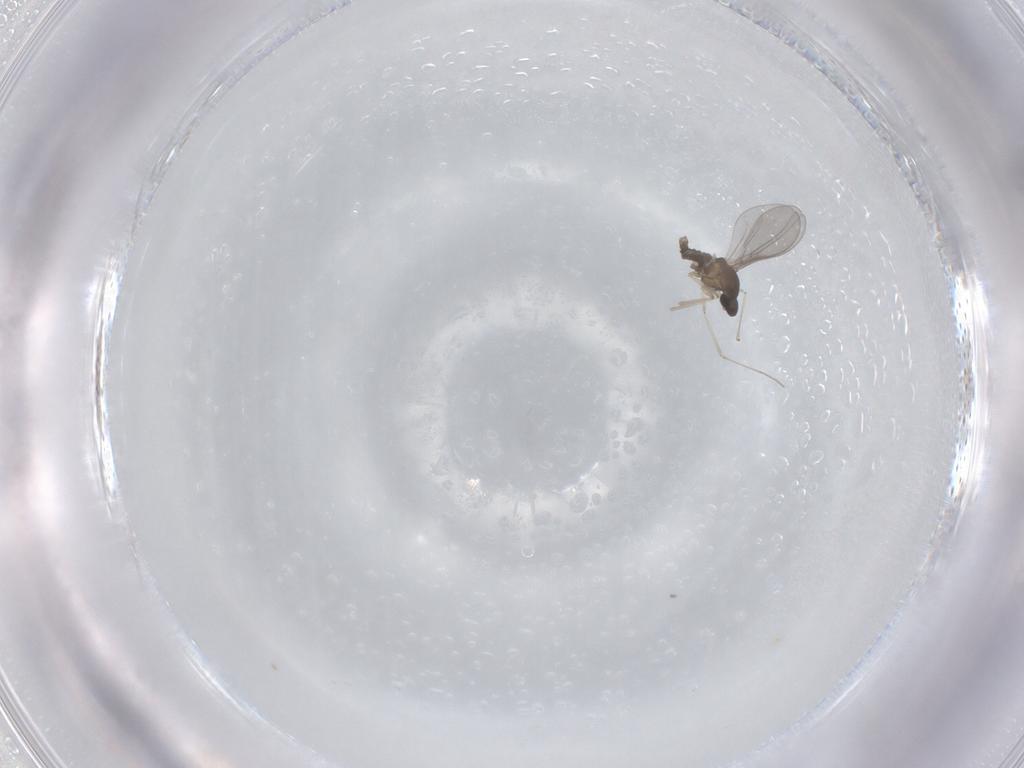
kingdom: Animalia
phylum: Arthropoda
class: Insecta
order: Diptera
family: Cecidomyiidae
